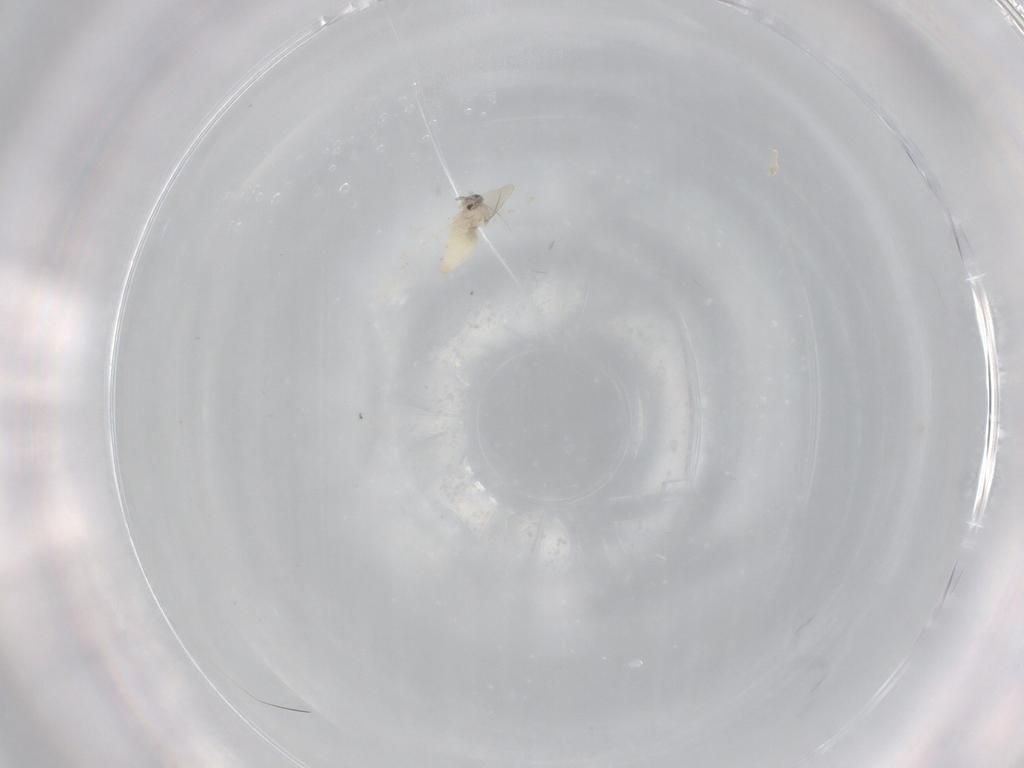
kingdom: Animalia
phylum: Arthropoda
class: Insecta
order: Diptera
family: Cecidomyiidae
